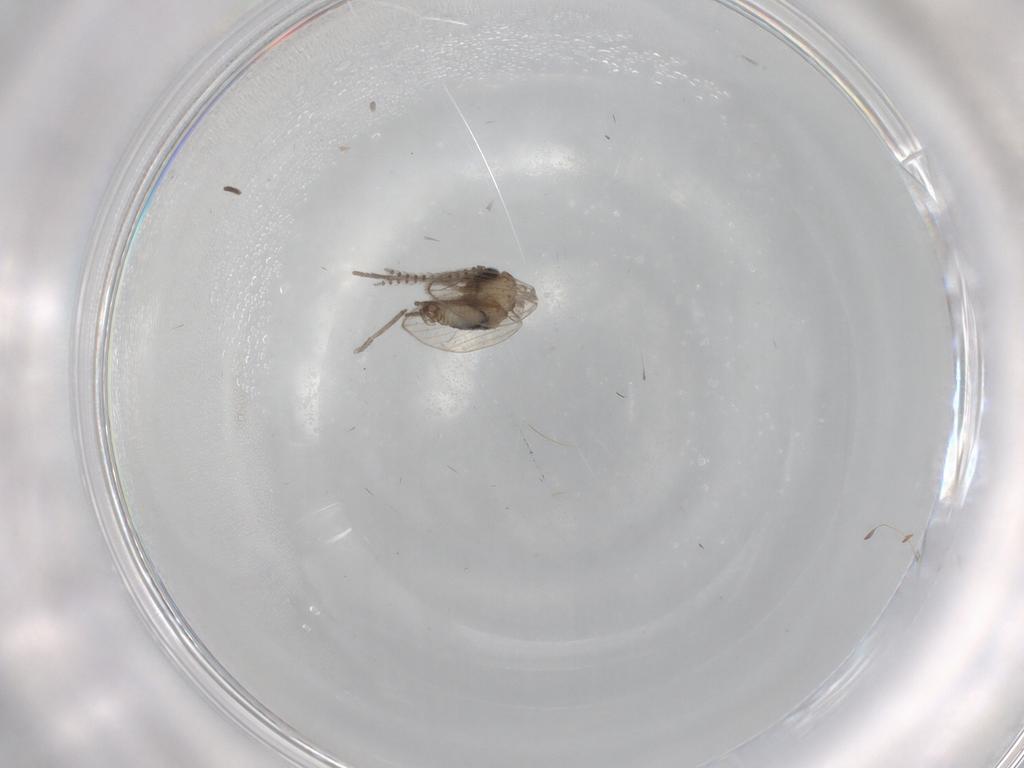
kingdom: Animalia
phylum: Arthropoda
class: Insecta
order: Diptera
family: Psychodidae
